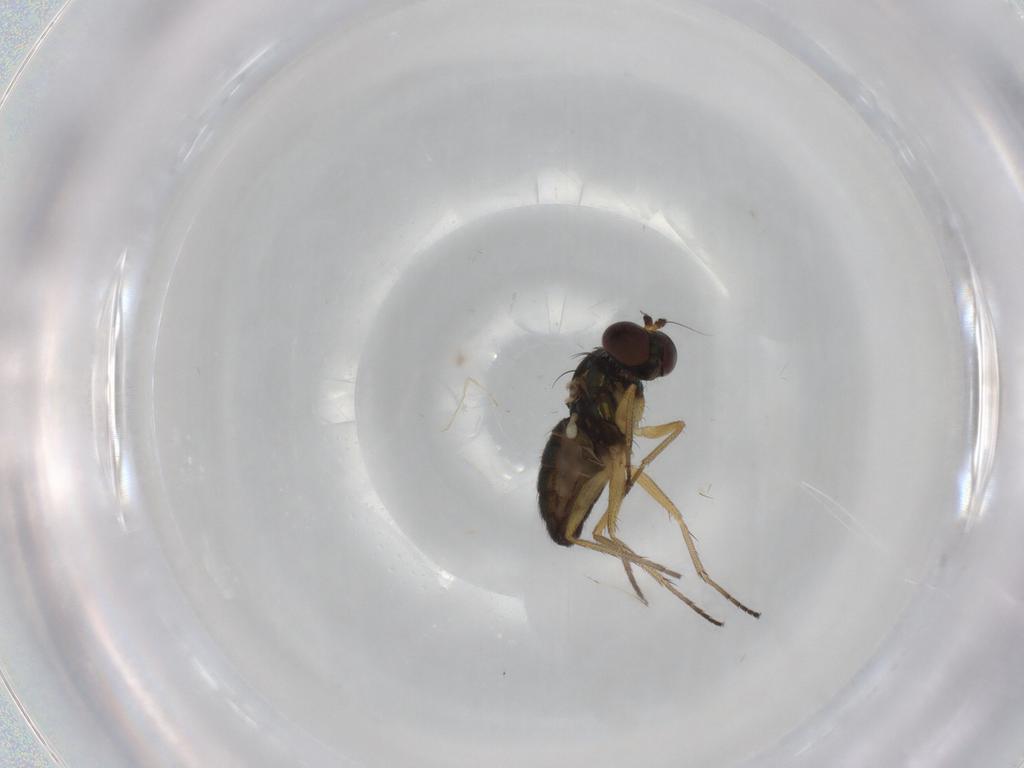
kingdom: Animalia
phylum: Arthropoda
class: Insecta
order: Diptera
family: Dolichopodidae
